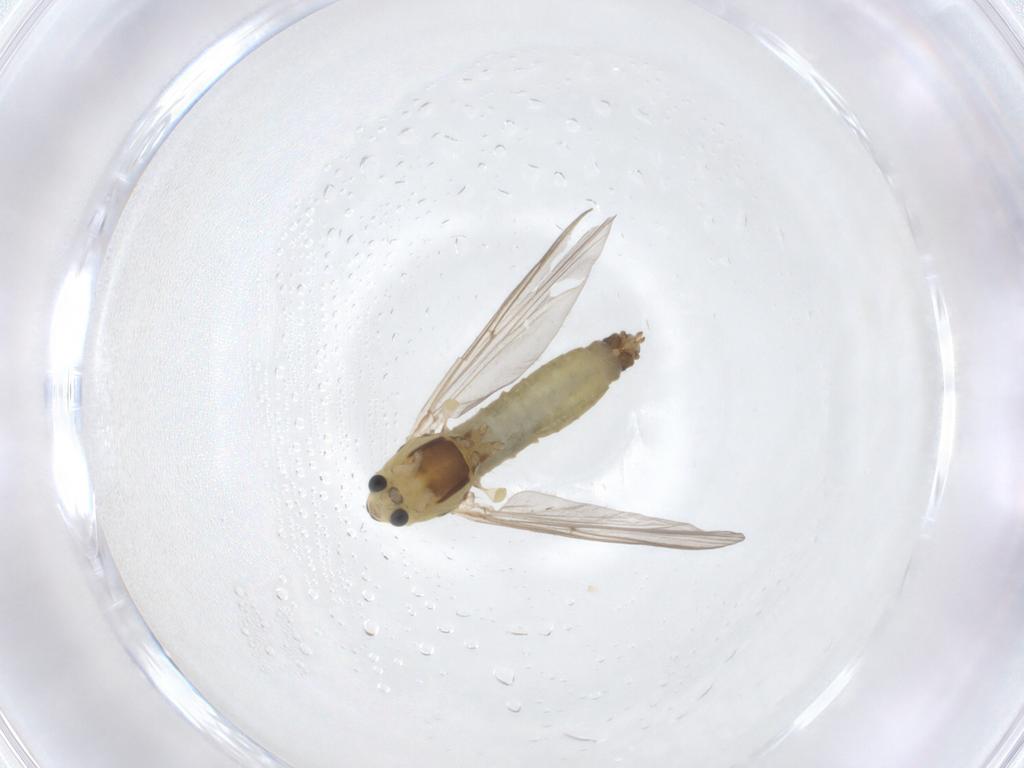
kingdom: Animalia
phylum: Arthropoda
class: Insecta
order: Diptera
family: Chironomidae
